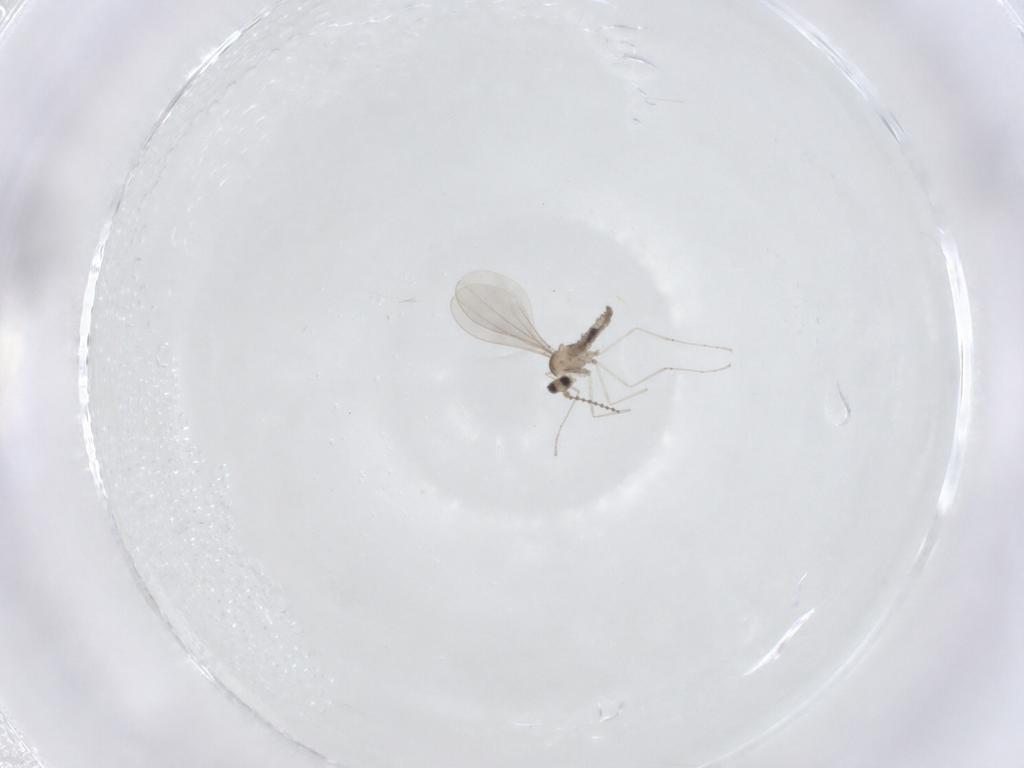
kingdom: Animalia
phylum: Arthropoda
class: Insecta
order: Diptera
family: Cecidomyiidae
